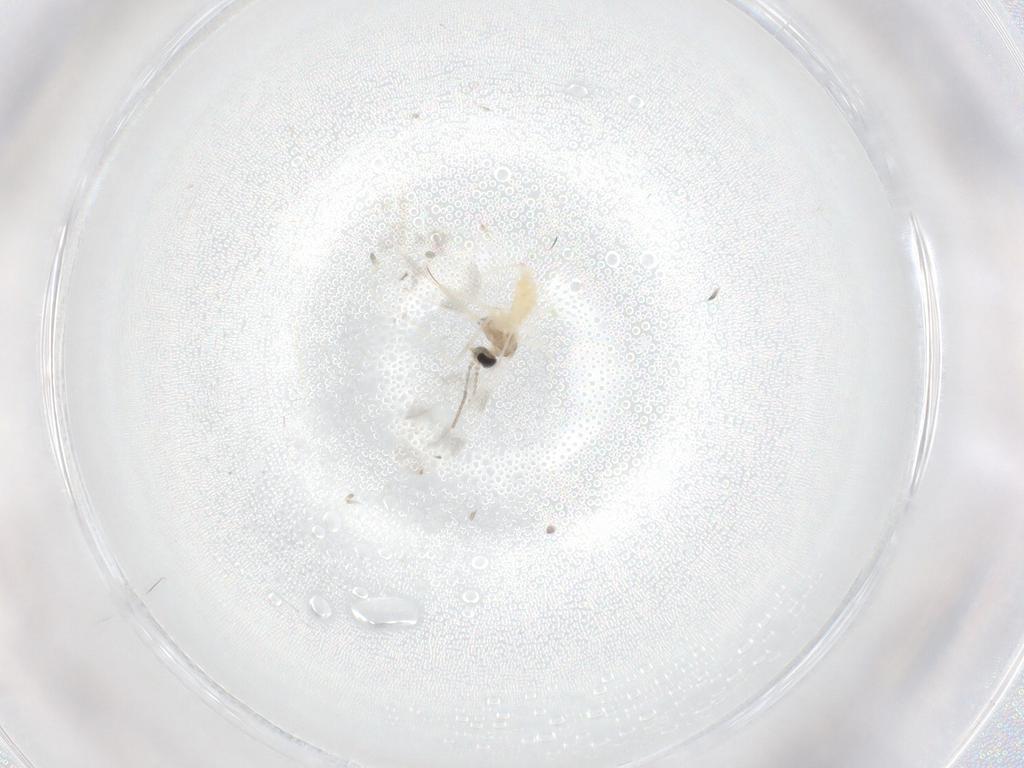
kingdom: Animalia
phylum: Arthropoda
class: Insecta
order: Diptera
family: Cecidomyiidae
